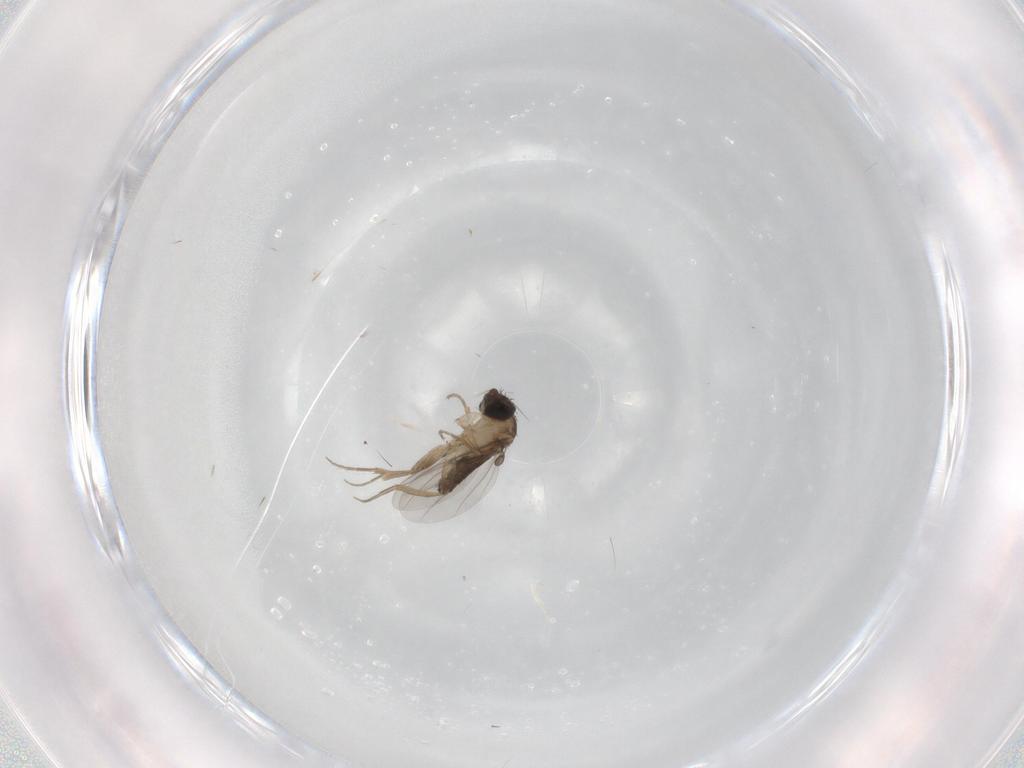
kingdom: Animalia
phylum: Arthropoda
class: Insecta
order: Diptera
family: Phoridae
